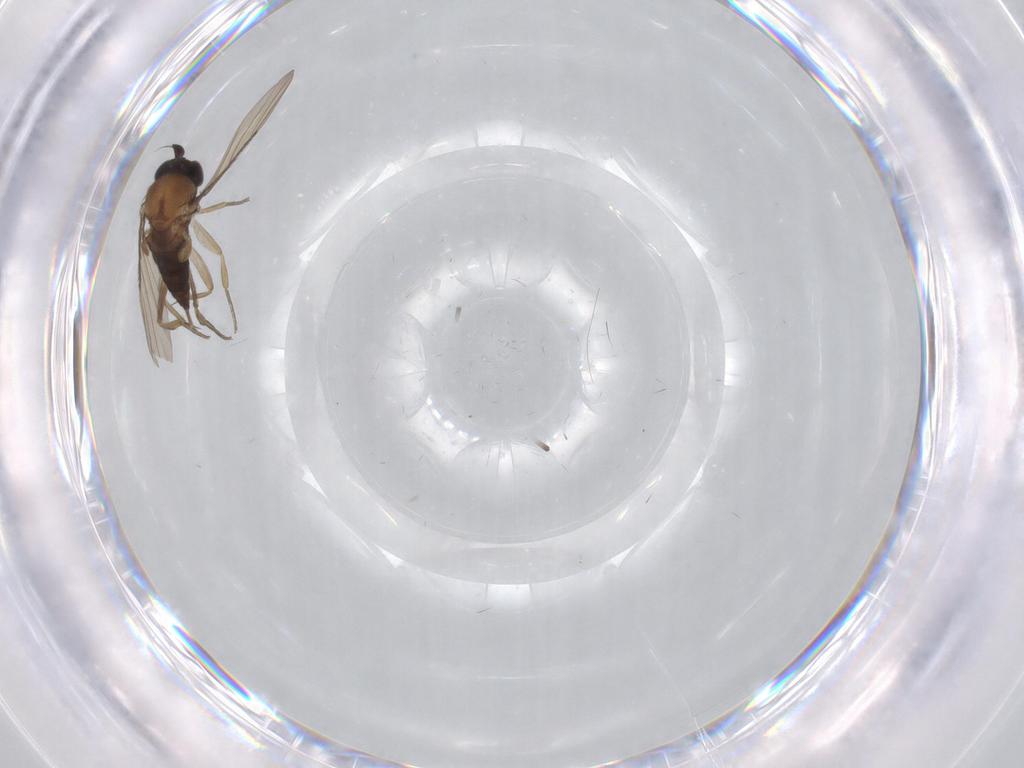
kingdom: Animalia
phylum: Arthropoda
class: Insecta
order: Diptera
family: Phoridae
